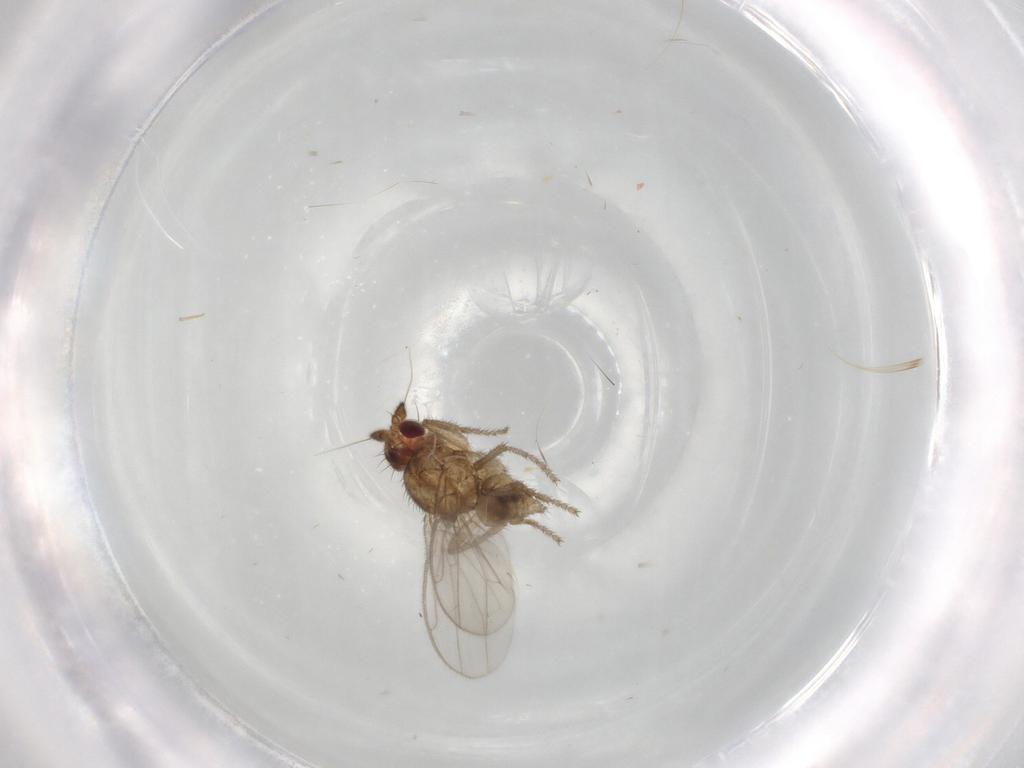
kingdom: Animalia
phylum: Arthropoda
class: Insecta
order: Diptera
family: Sphaeroceridae
